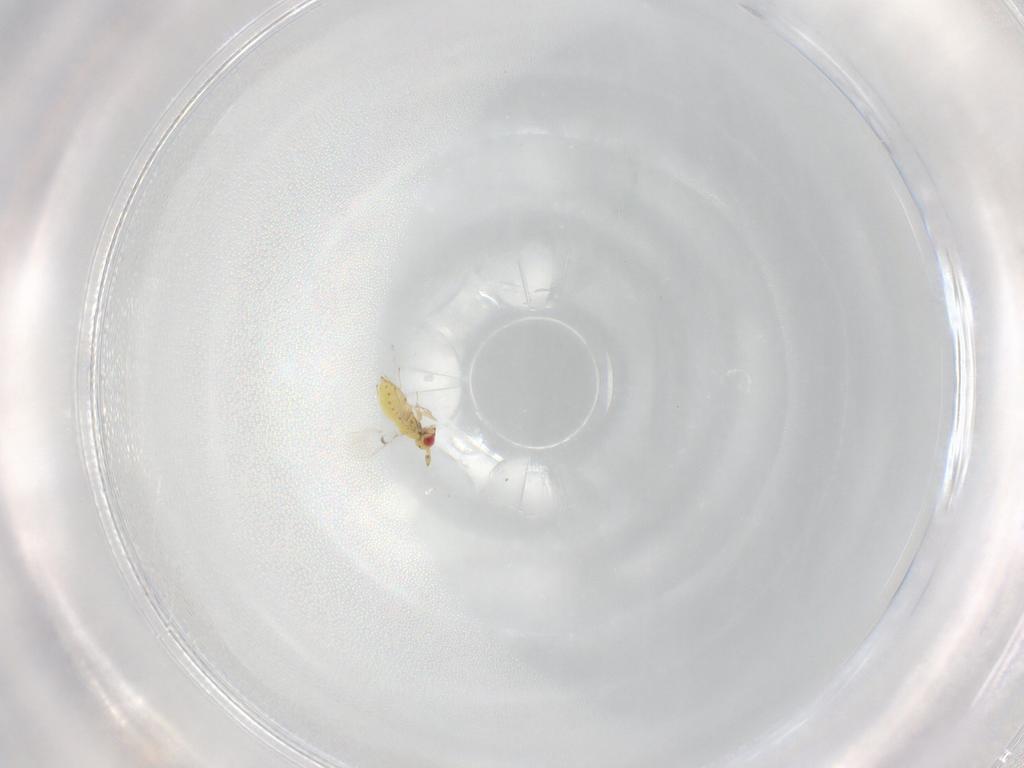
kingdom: Animalia
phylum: Arthropoda
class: Insecta
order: Hymenoptera
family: Trichogrammatidae
